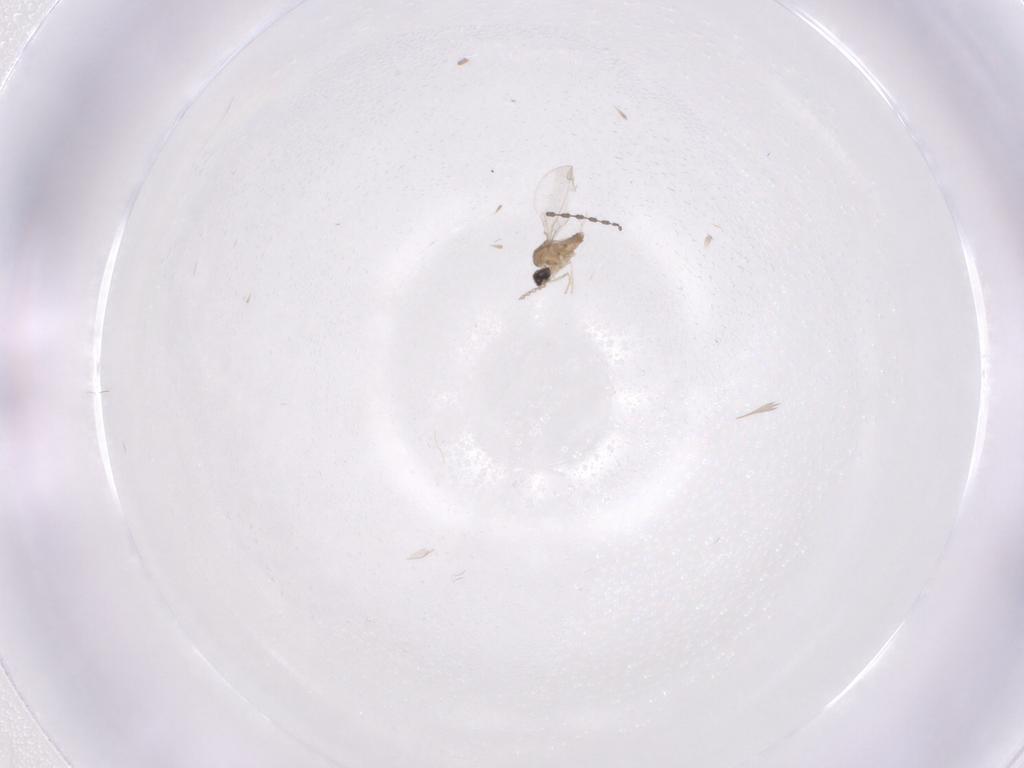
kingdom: Animalia
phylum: Arthropoda
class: Insecta
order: Diptera
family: Cecidomyiidae
